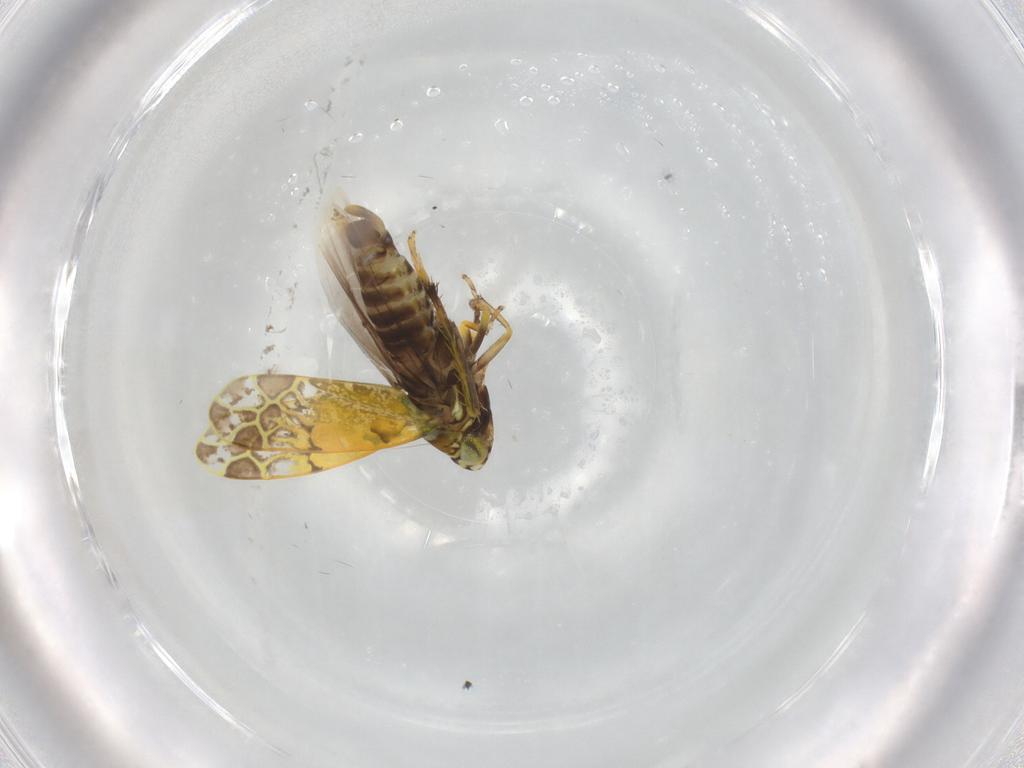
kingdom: Animalia
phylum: Arthropoda
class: Insecta
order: Hemiptera
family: Cicadellidae
